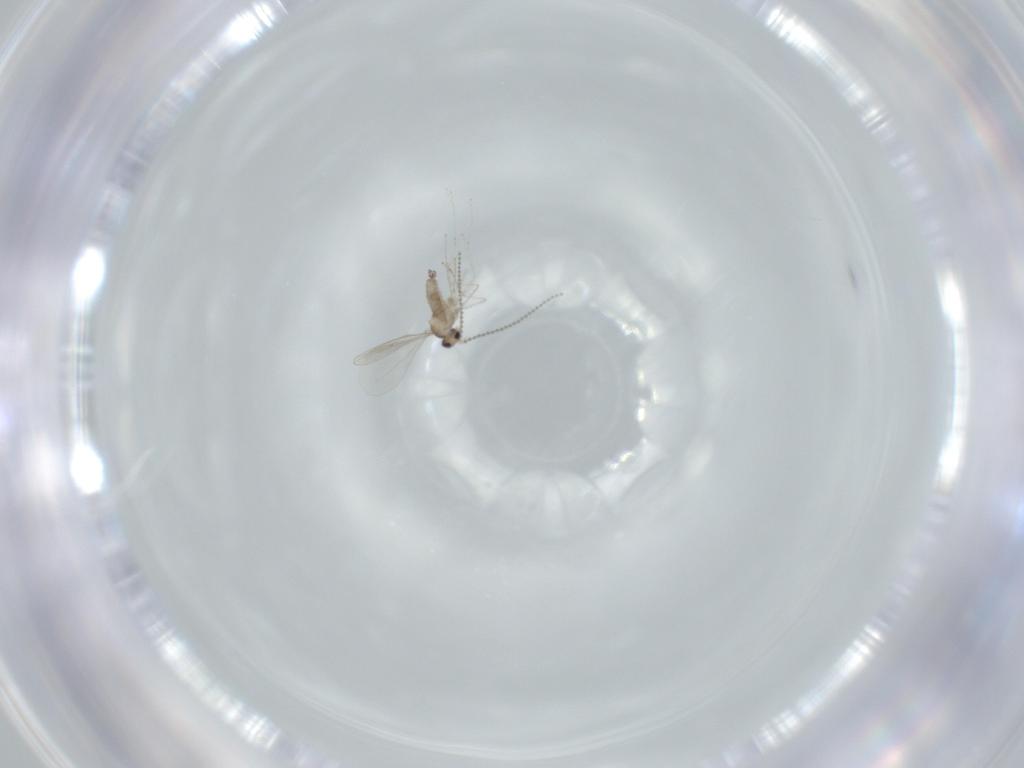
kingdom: Animalia
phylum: Arthropoda
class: Insecta
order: Diptera
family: Cecidomyiidae
